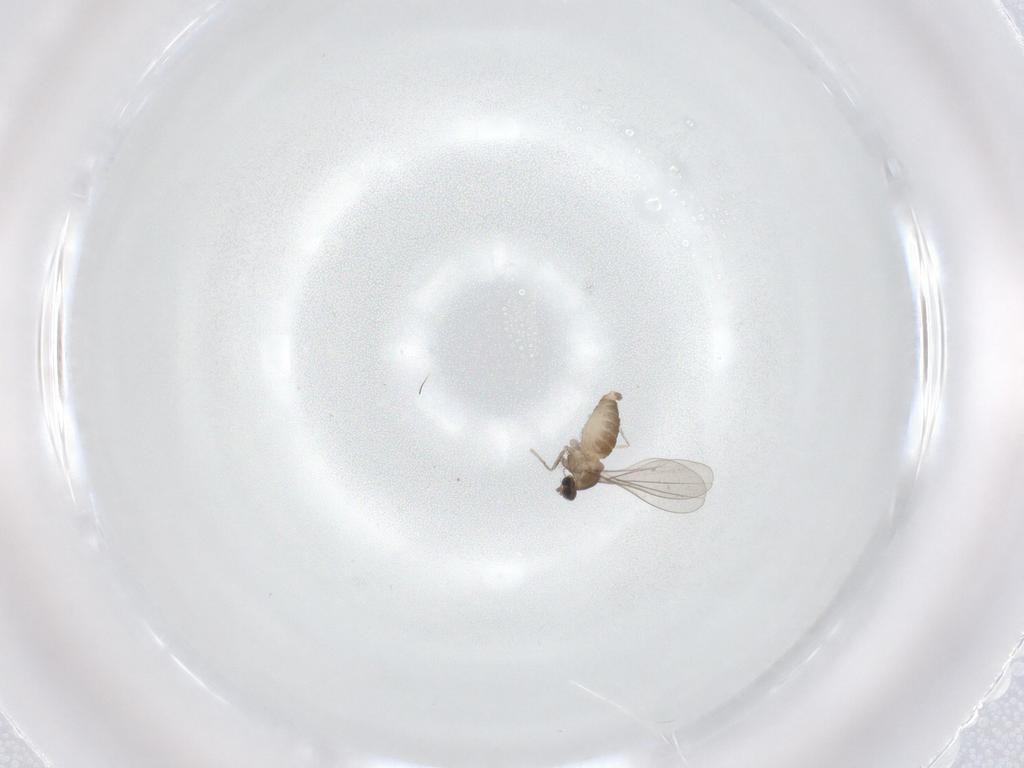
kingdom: Animalia
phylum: Arthropoda
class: Insecta
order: Diptera
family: Cecidomyiidae
